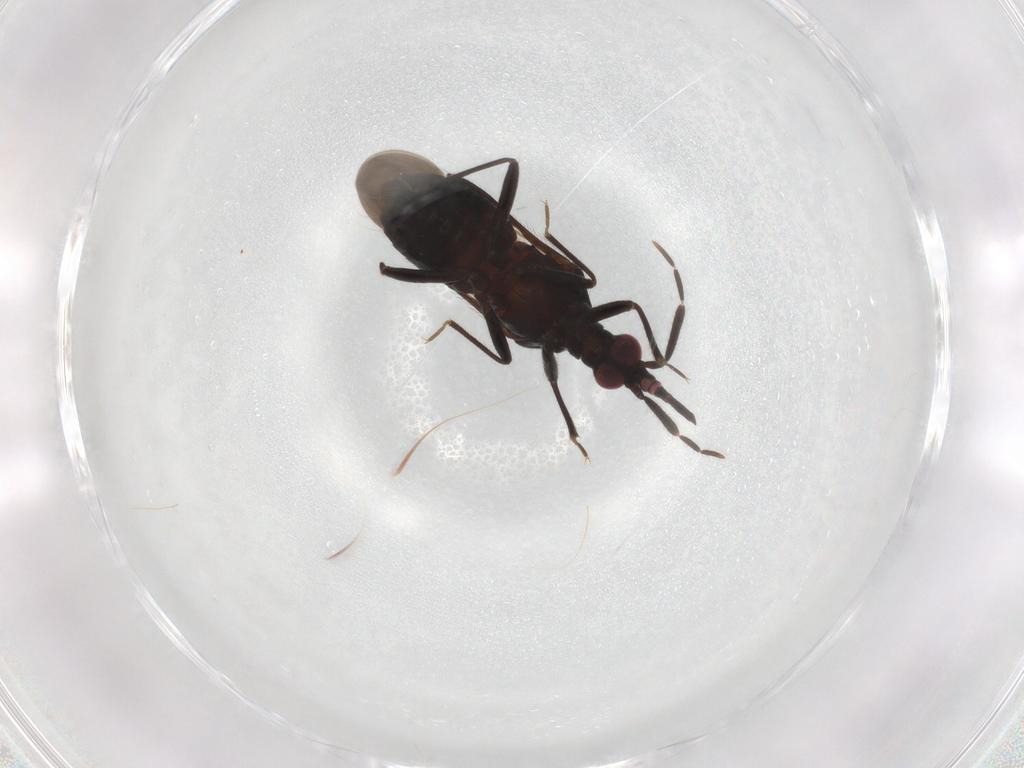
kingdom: Animalia
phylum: Arthropoda
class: Insecta
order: Hemiptera
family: Anthocoridae
